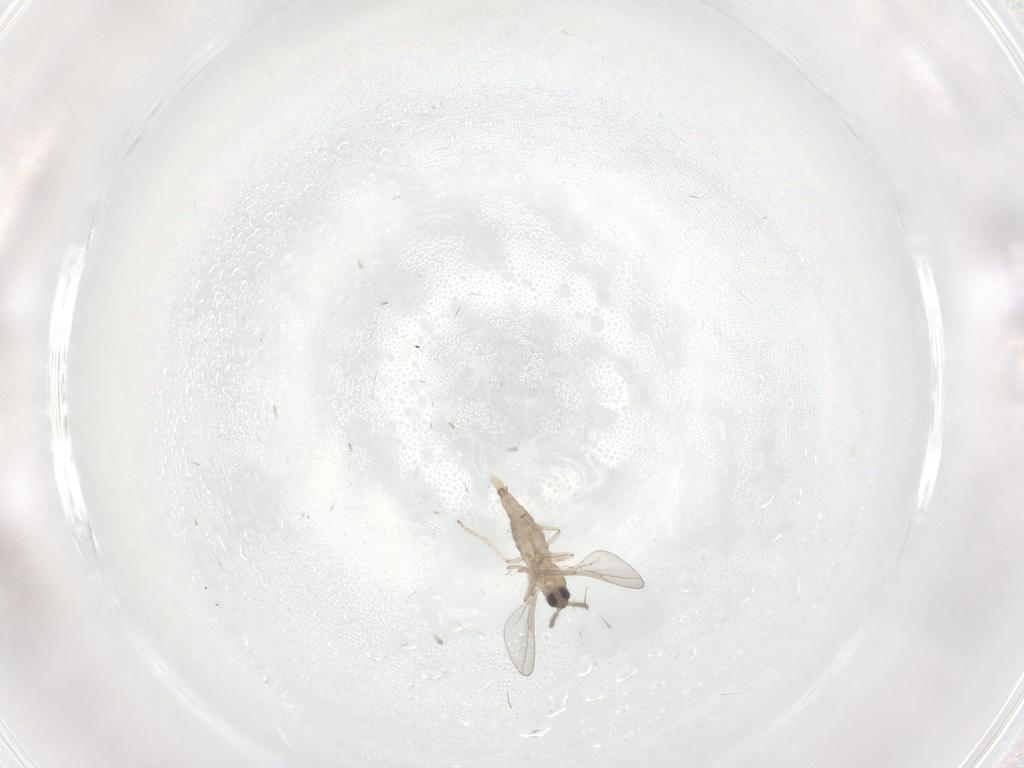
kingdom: Animalia
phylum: Arthropoda
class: Insecta
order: Diptera
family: Cecidomyiidae
